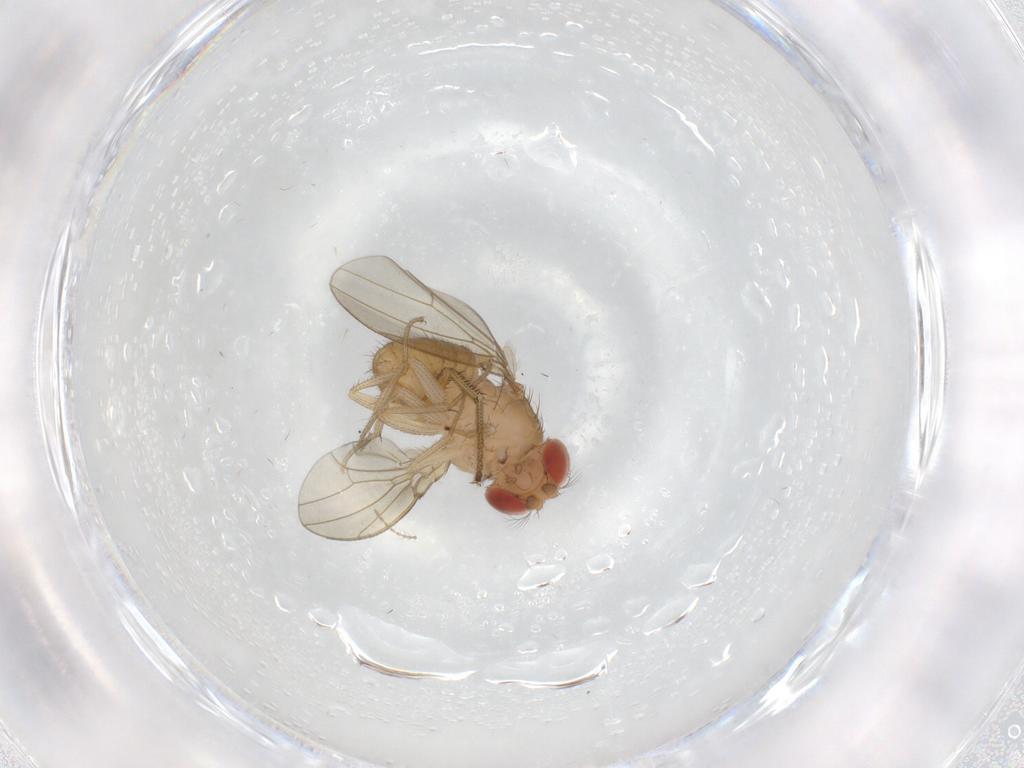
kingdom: Animalia
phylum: Arthropoda
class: Insecta
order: Diptera
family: Drosophilidae
